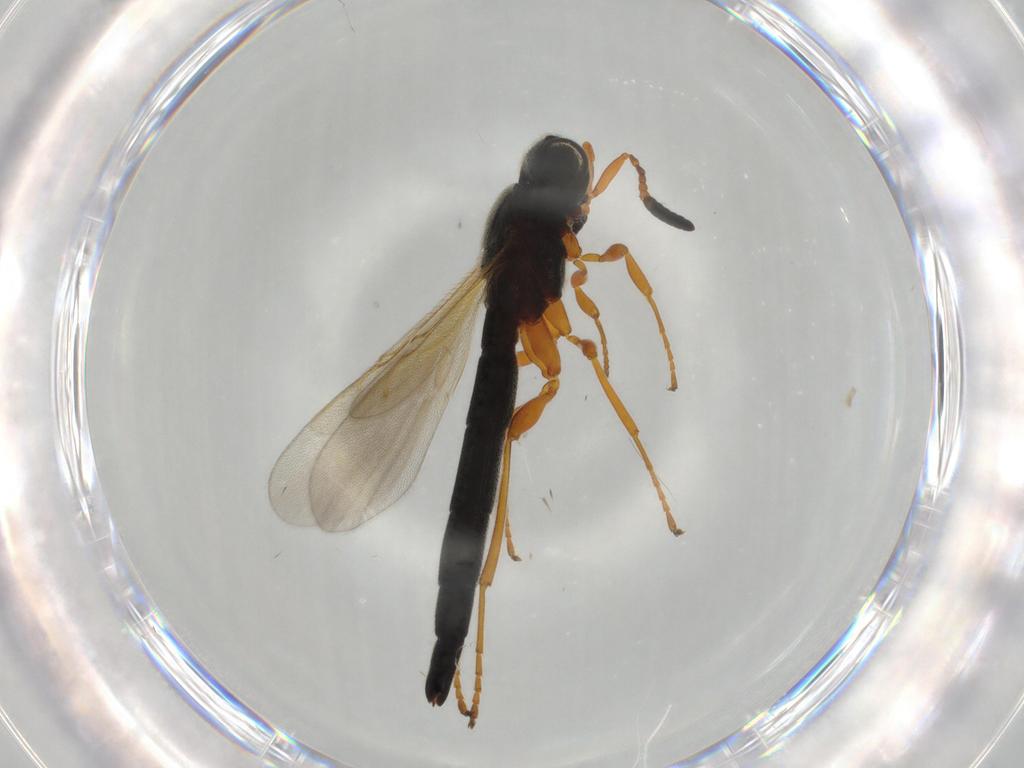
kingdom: Animalia
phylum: Arthropoda
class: Insecta
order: Hymenoptera
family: Scelionidae
